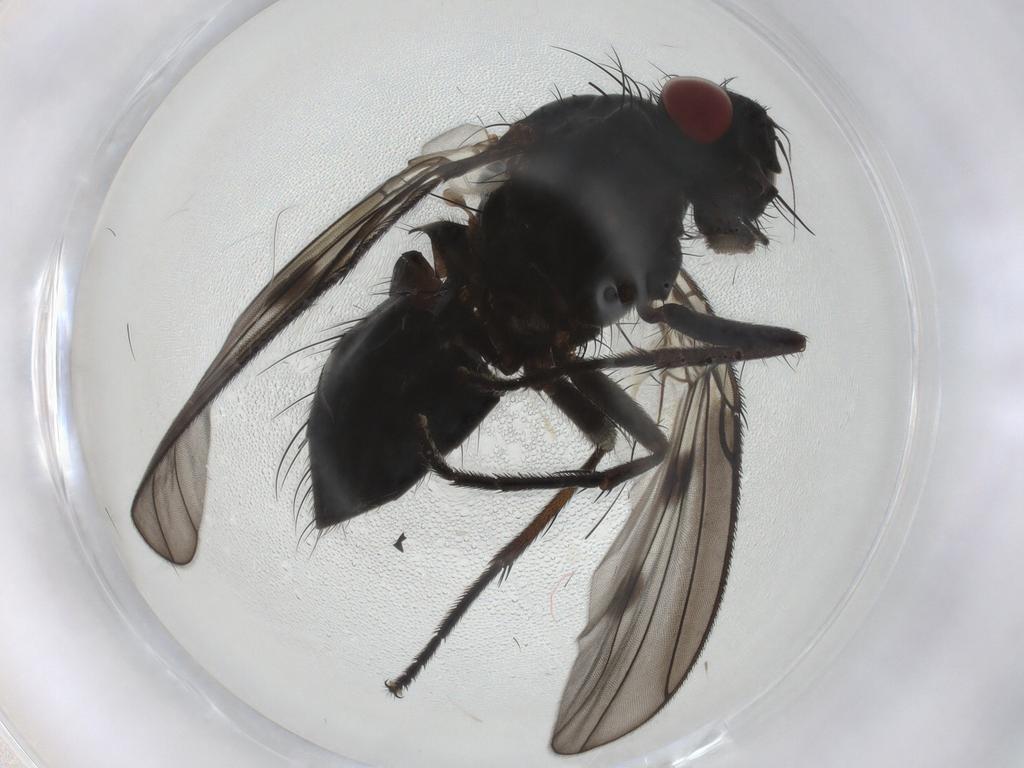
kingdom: Animalia
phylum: Arthropoda
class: Insecta
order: Diptera
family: Muscidae
